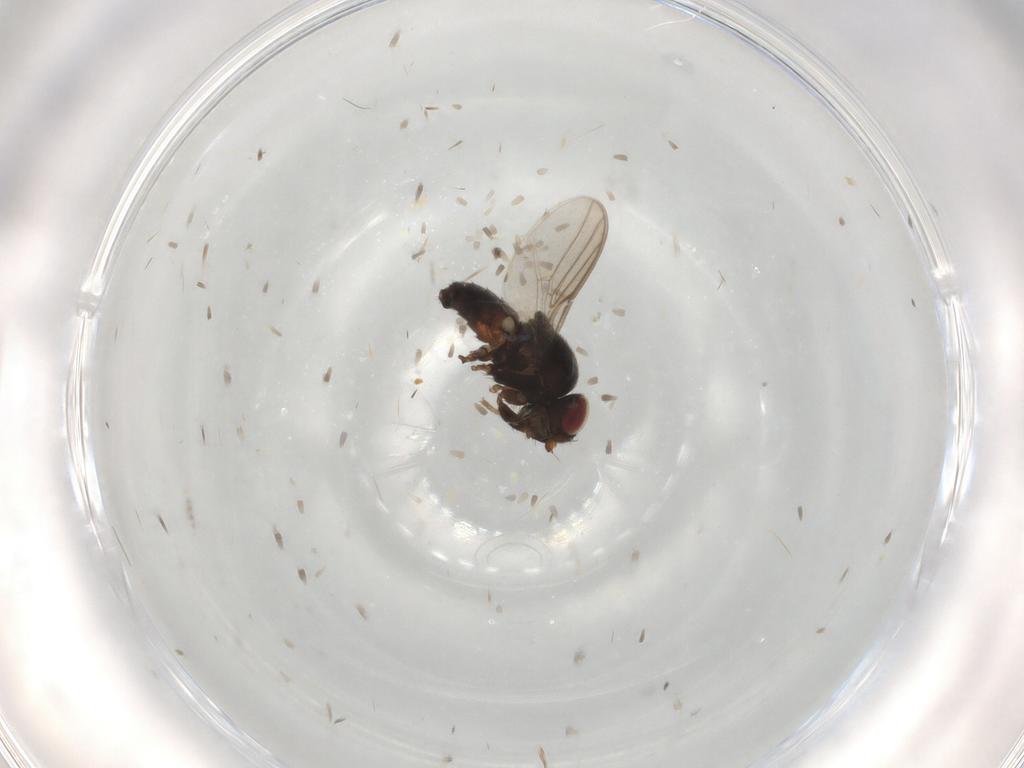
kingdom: Animalia
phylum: Arthropoda
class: Insecta
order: Diptera
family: Chloropidae
